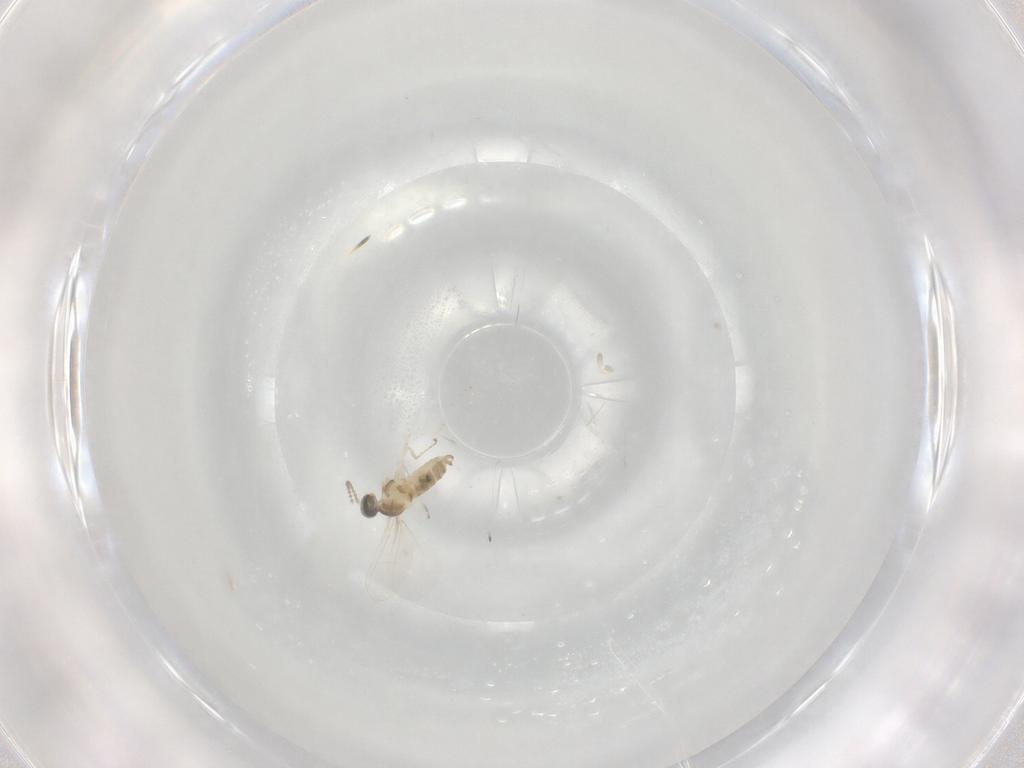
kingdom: Animalia
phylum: Arthropoda
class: Insecta
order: Diptera
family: Cecidomyiidae
